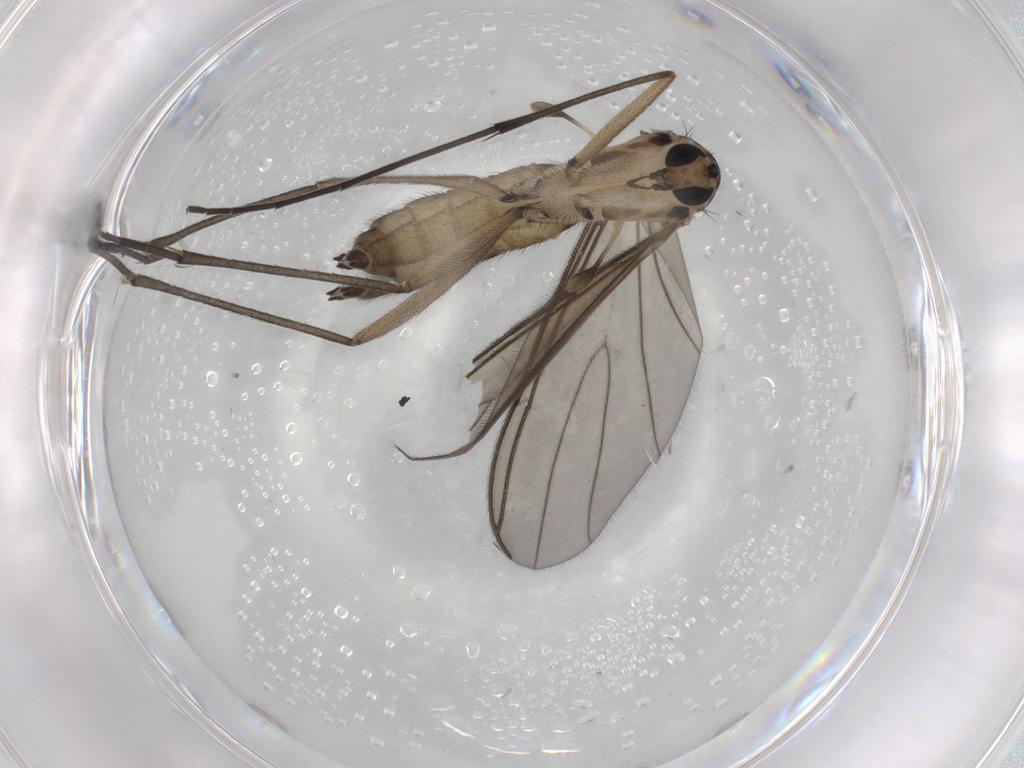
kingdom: Animalia
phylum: Arthropoda
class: Insecta
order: Diptera
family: Sciaridae
